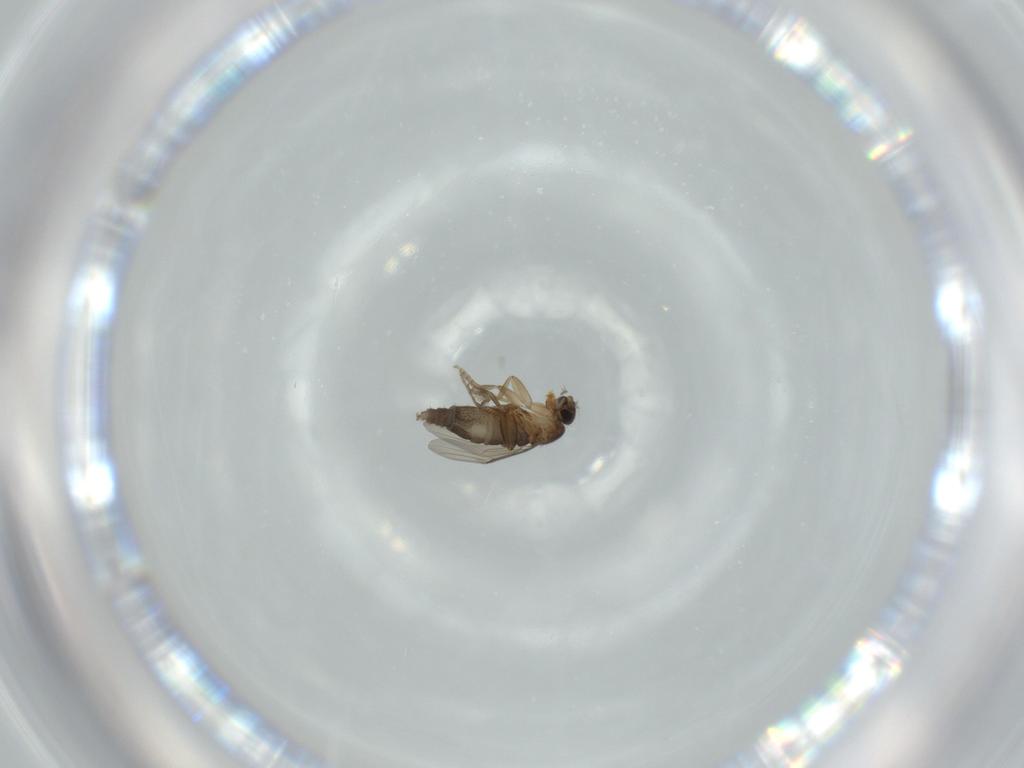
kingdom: Animalia
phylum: Arthropoda
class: Insecta
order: Diptera
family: Phoridae
